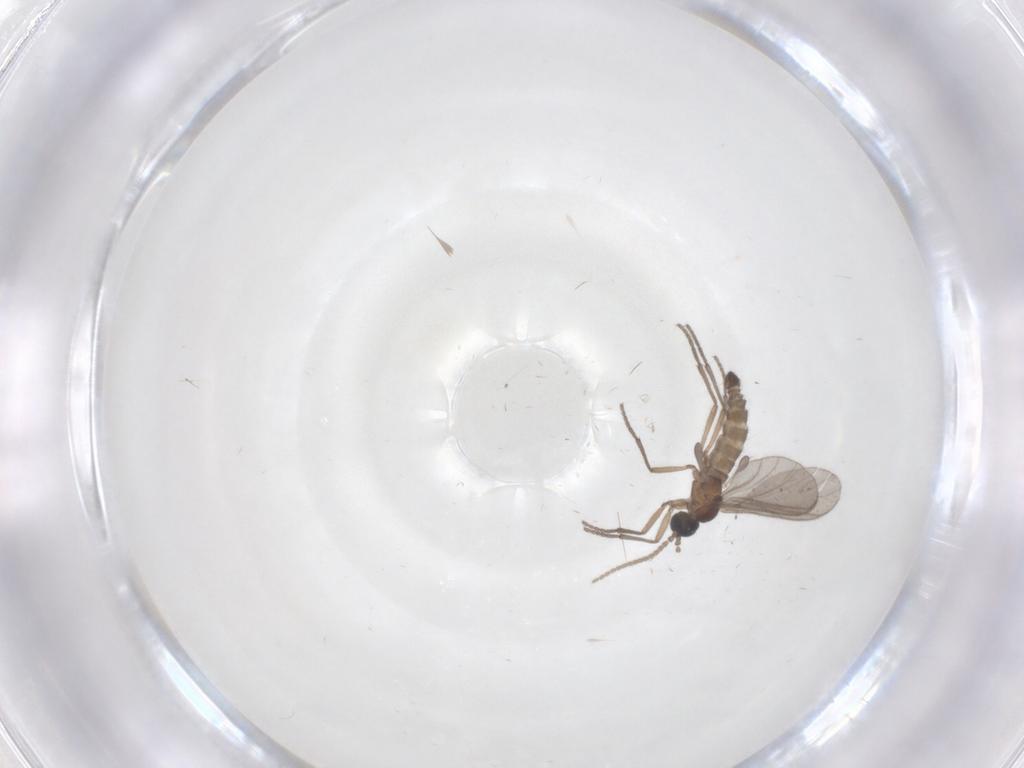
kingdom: Animalia
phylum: Arthropoda
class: Insecta
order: Diptera
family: Sciaridae
